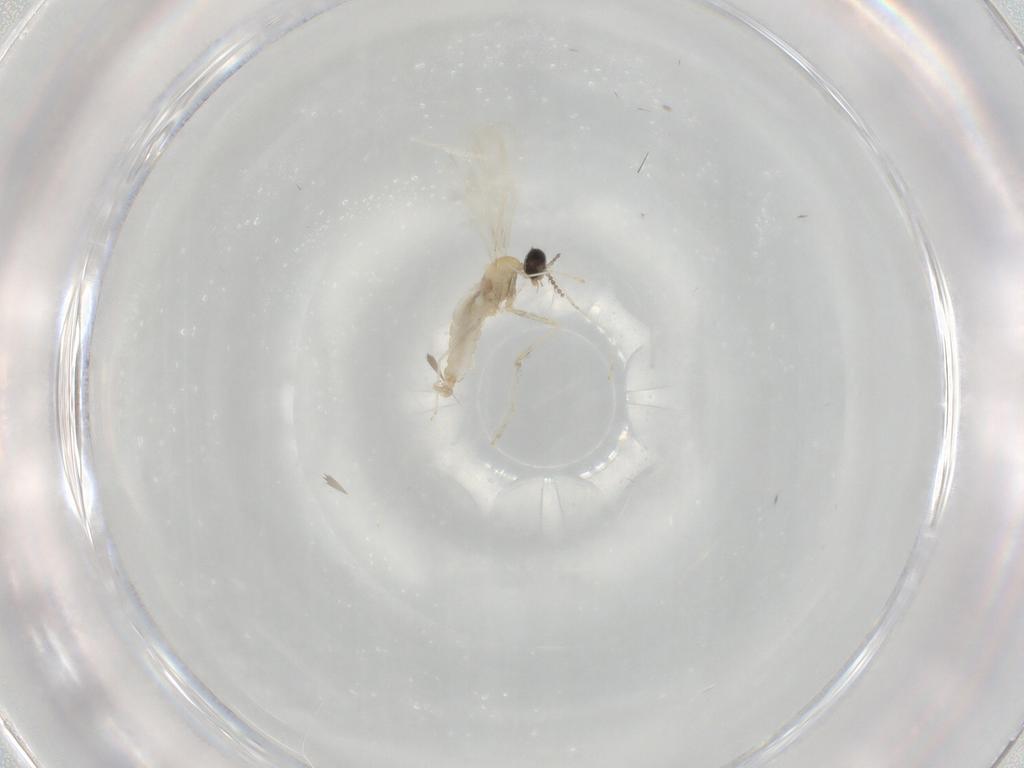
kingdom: Animalia
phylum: Arthropoda
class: Insecta
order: Diptera
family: Cecidomyiidae
